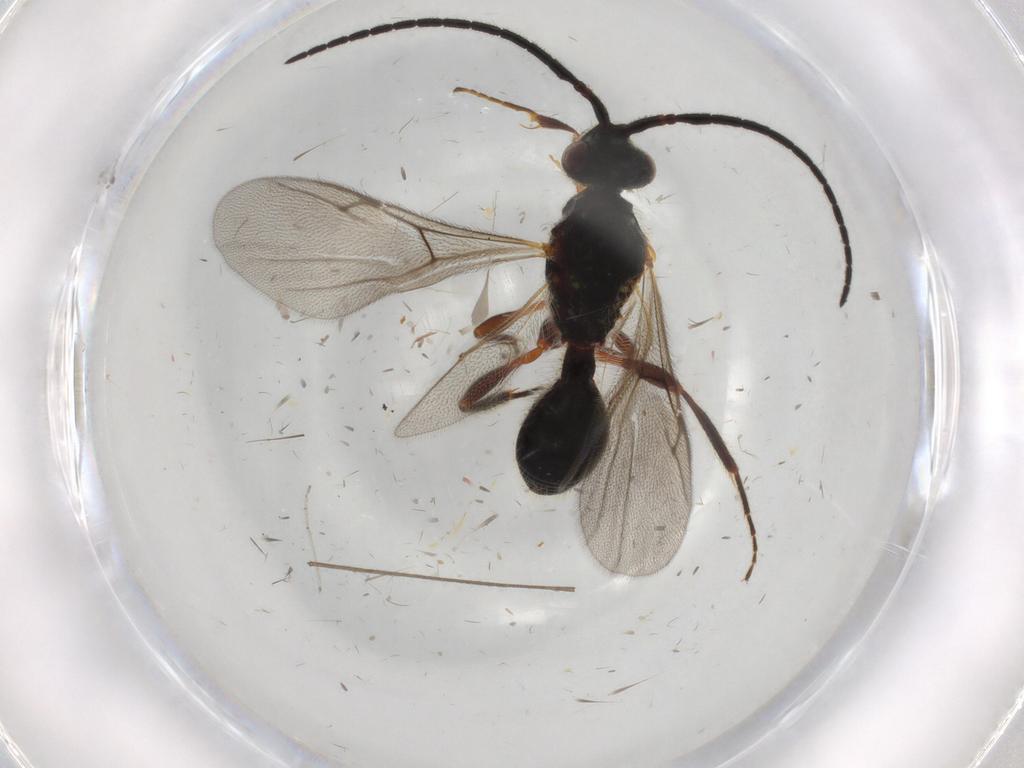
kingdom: Animalia
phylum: Arthropoda
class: Insecta
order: Hymenoptera
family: Diapriidae
